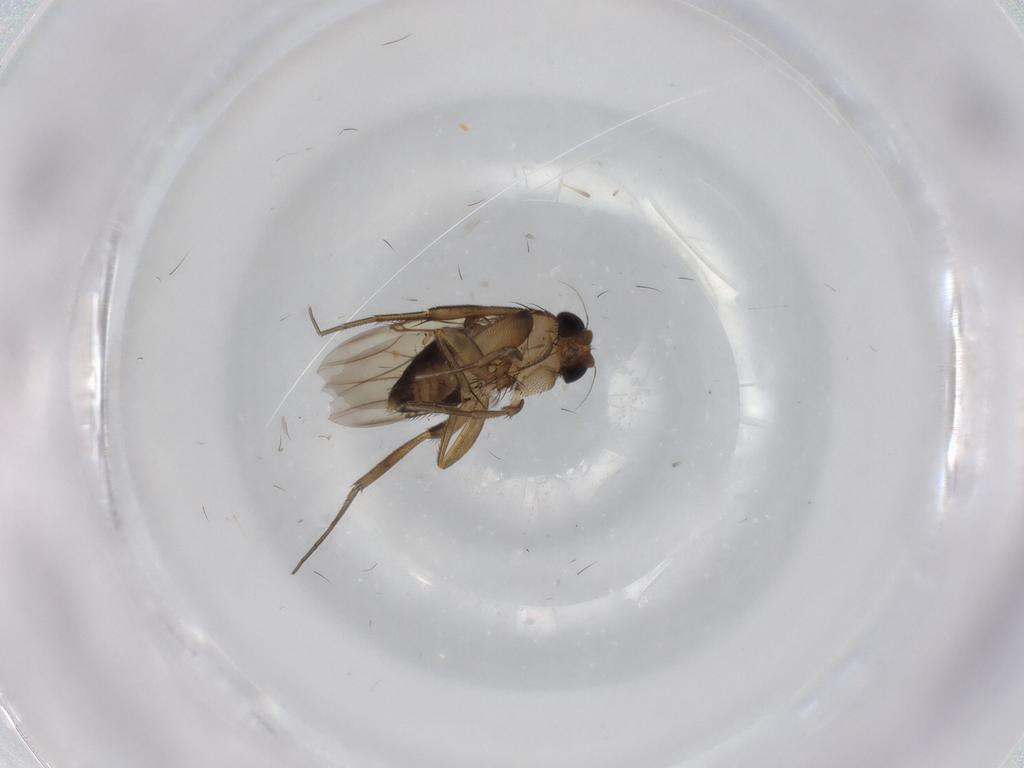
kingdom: Animalia
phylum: Arthropoda
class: Insecta
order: Diptera
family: Phoridae
